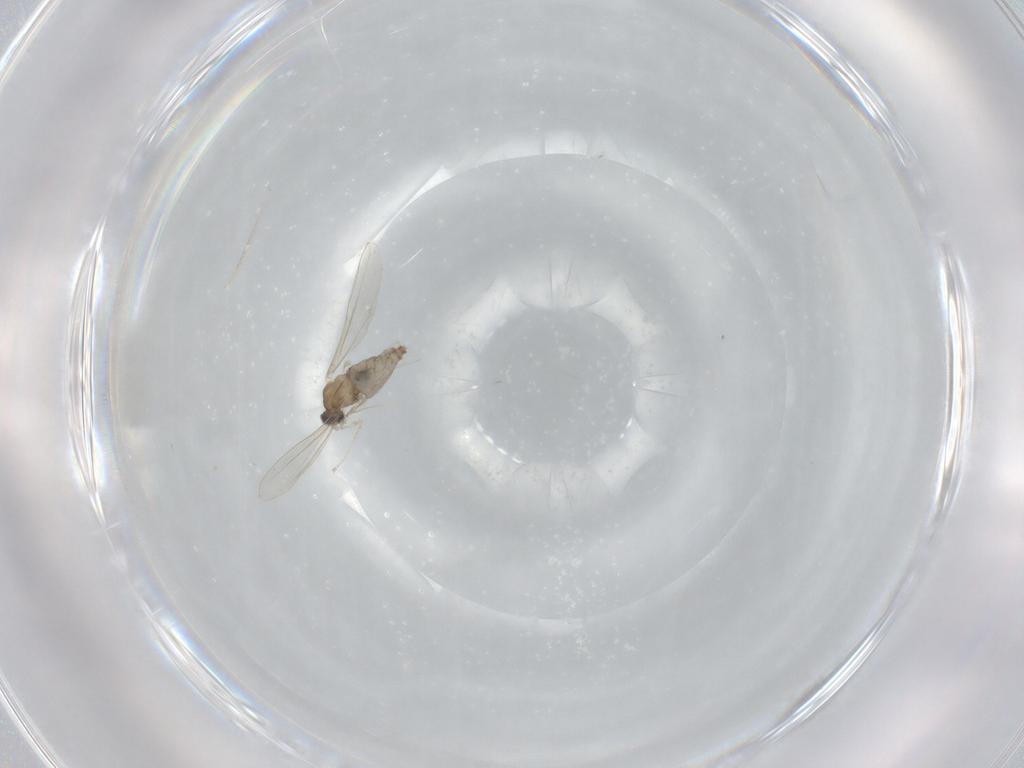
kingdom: Animalia
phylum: Arthropoda
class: Insecta
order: Diptera
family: Cecidomyiidae
